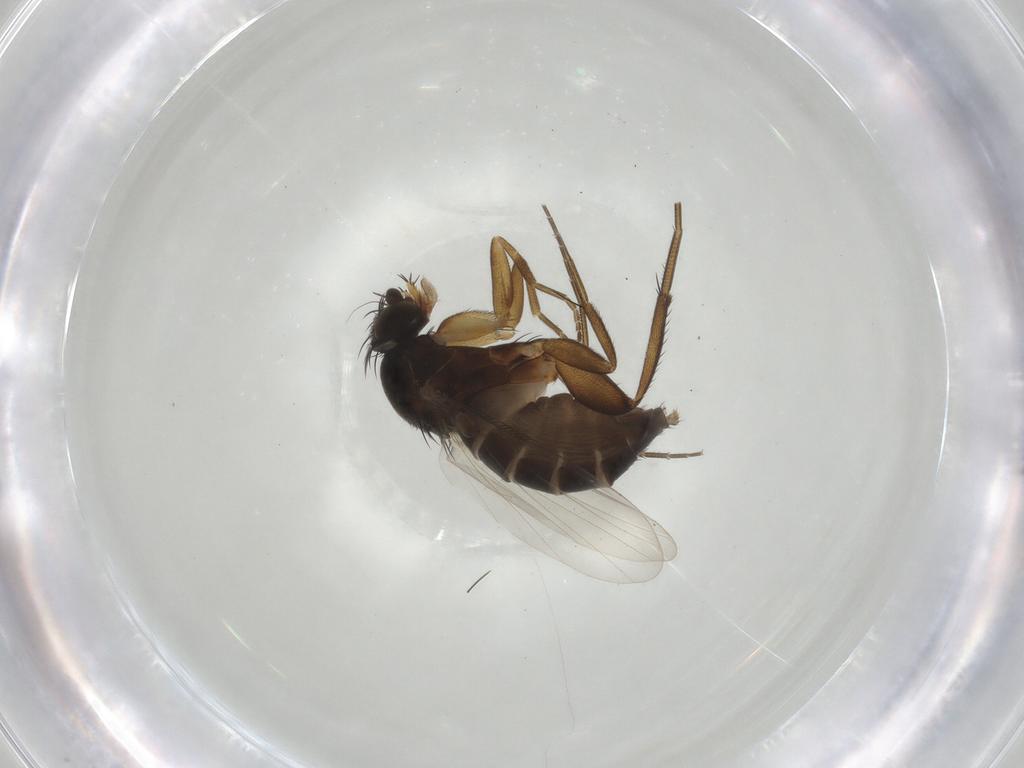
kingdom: Animalia
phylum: Arthropoda
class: Insecta
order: Diptera
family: Phoridae
